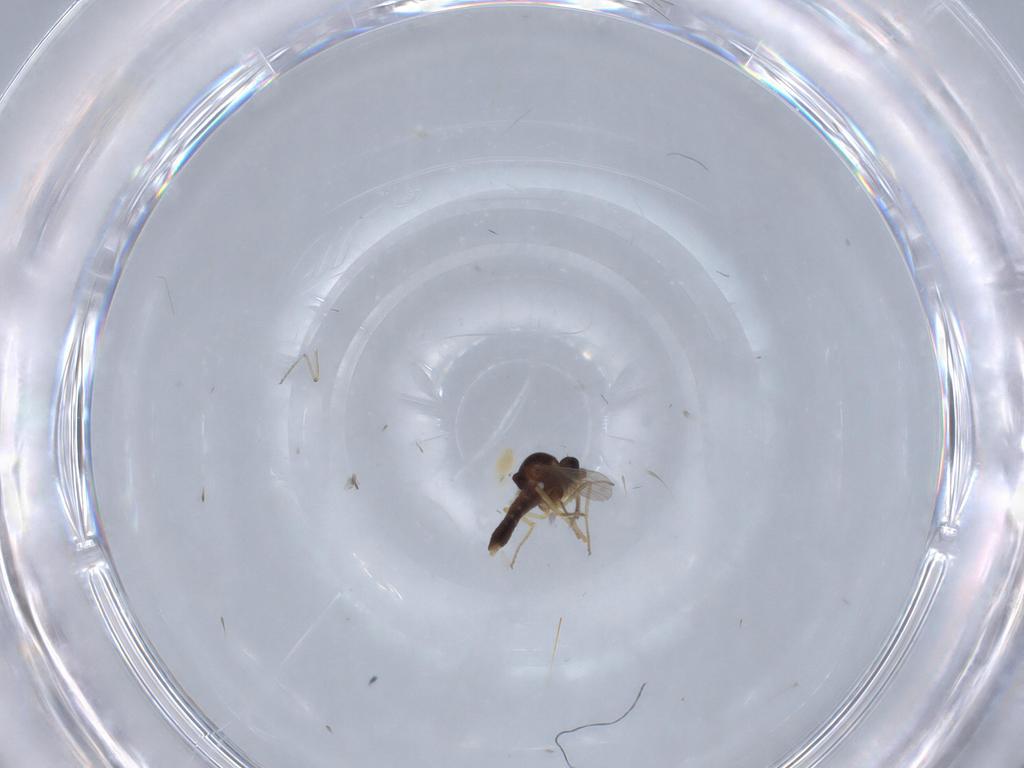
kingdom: Animalia
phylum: Arthropoda
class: Insecta
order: Diptera
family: Ceratopogonidae
